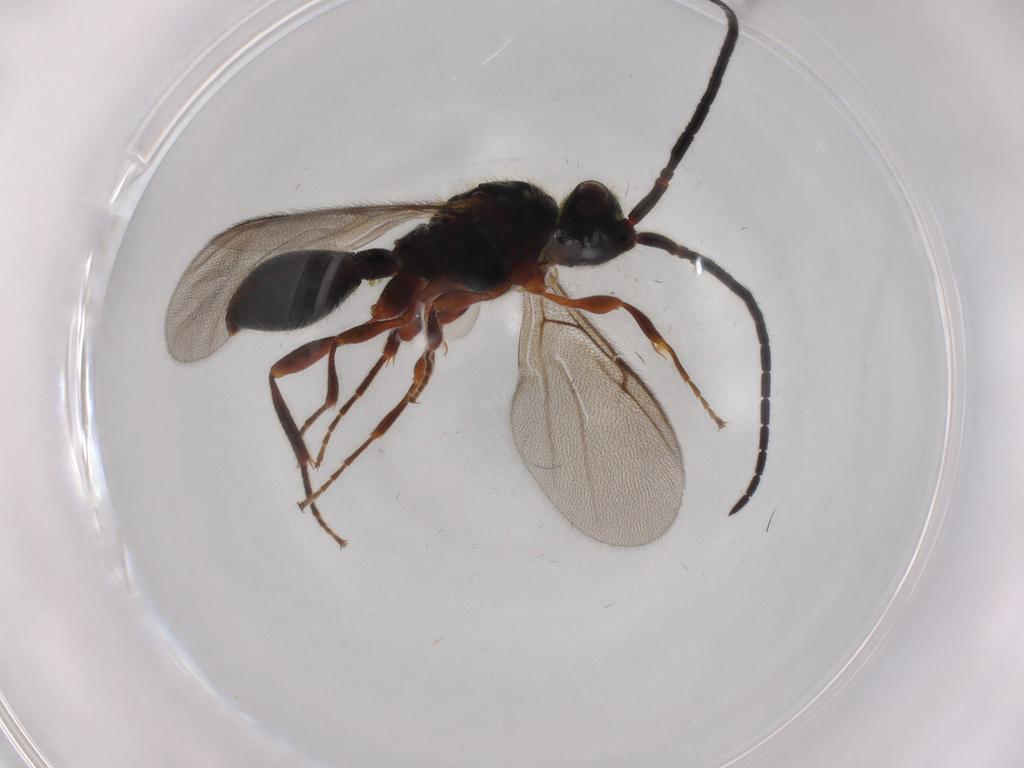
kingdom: Animalia
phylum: Arthropoda
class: Insecta
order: Hymenoptera
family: Diapriidae
